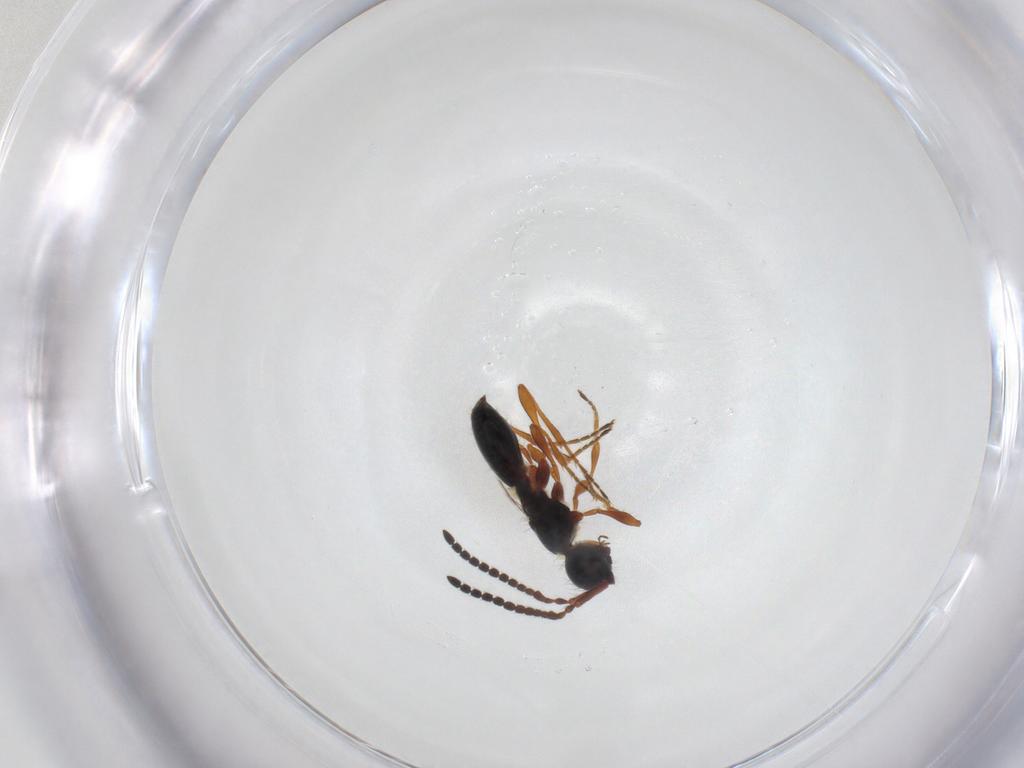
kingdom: Animalia
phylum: Arthropoda
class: Insecta
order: Hymenoptera
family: Diapriidae
